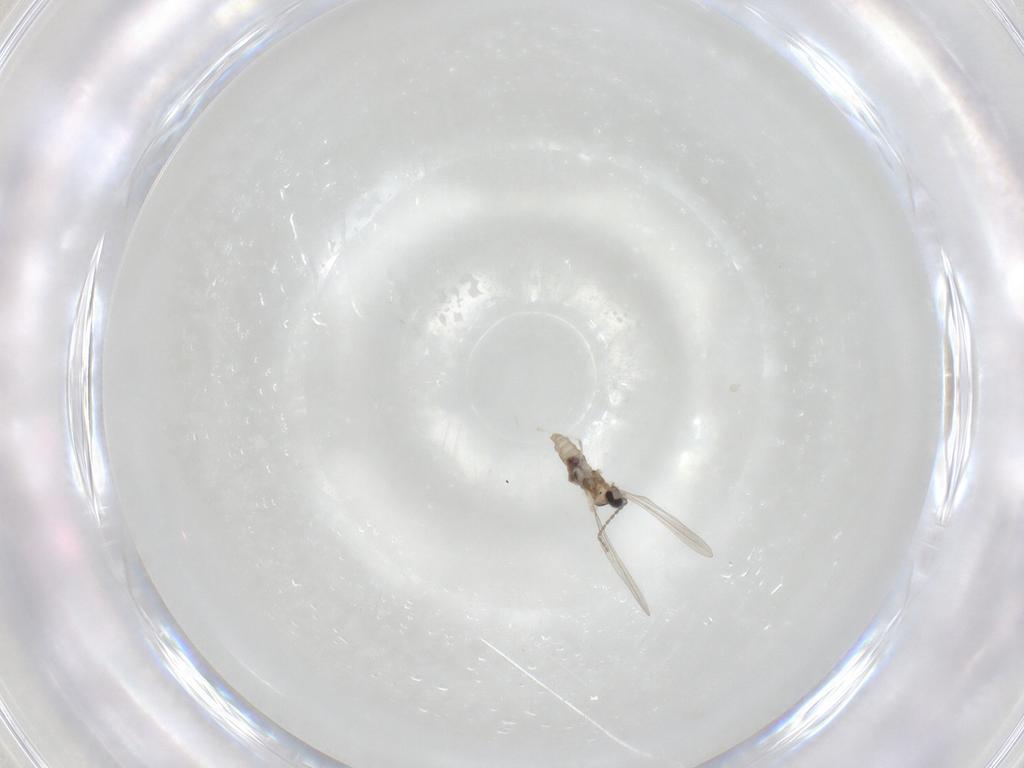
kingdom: Animalia
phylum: Arthropoda
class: Insecta
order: Diptera
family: Cecidomyiidae
